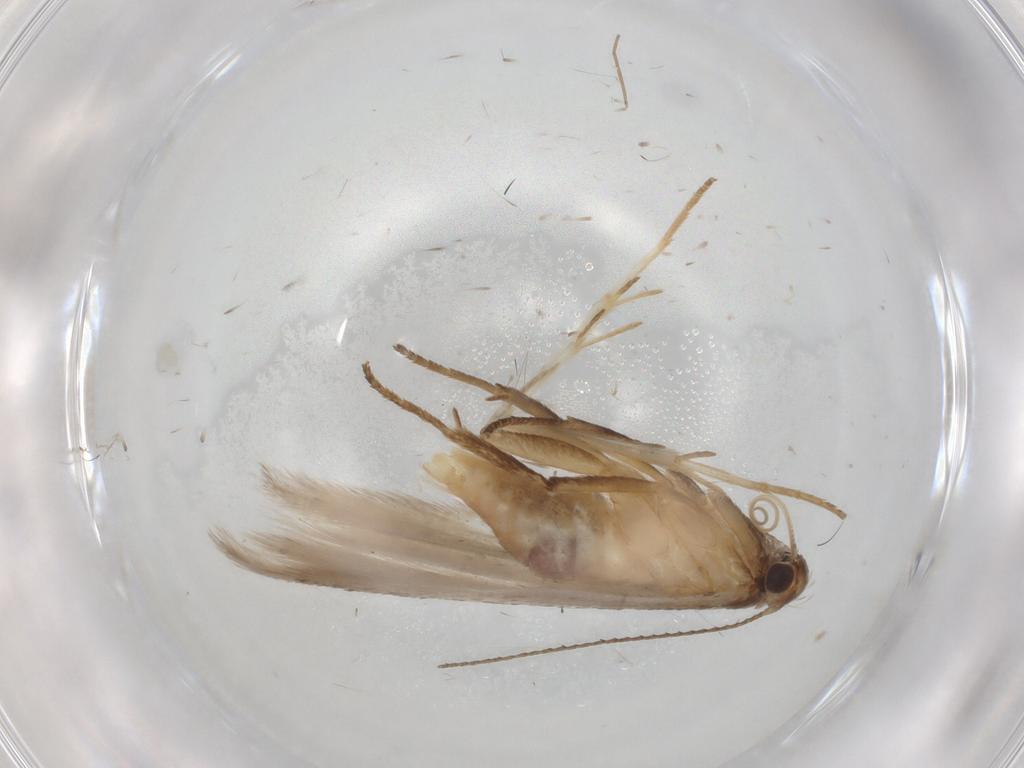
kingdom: Animalia
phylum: Arthropoda
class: Insecta
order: Lepidoptera
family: Gelechiidae
